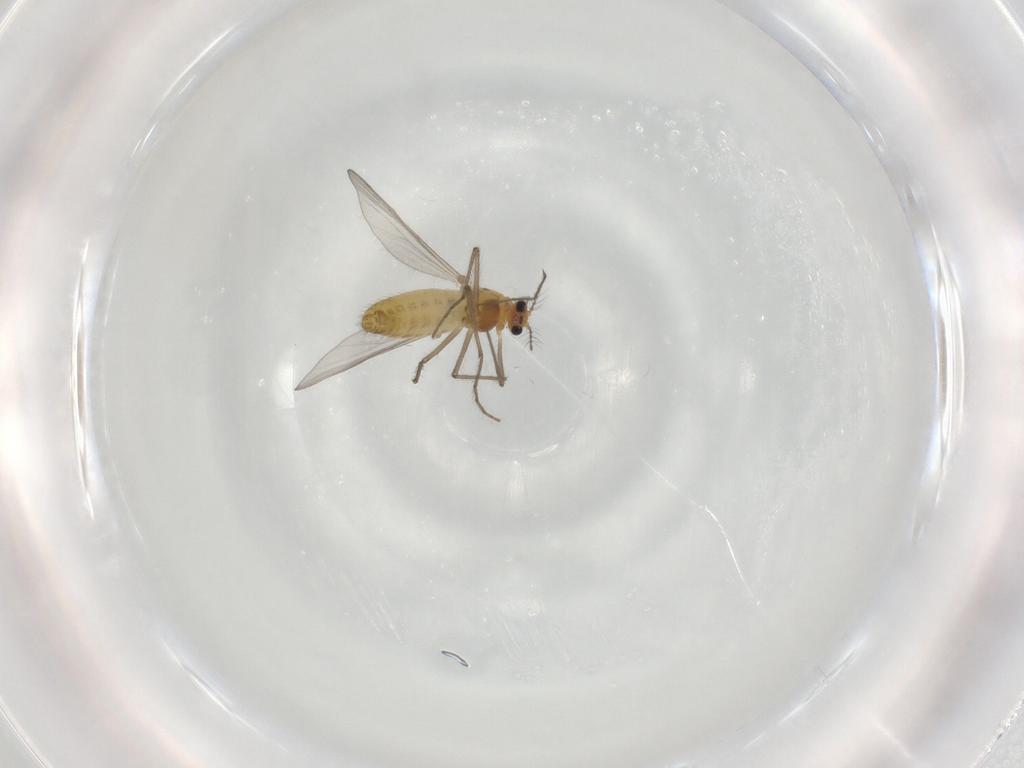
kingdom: Animalia
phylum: Arthropoda
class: Insecta
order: Diptera
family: Chironomidae
